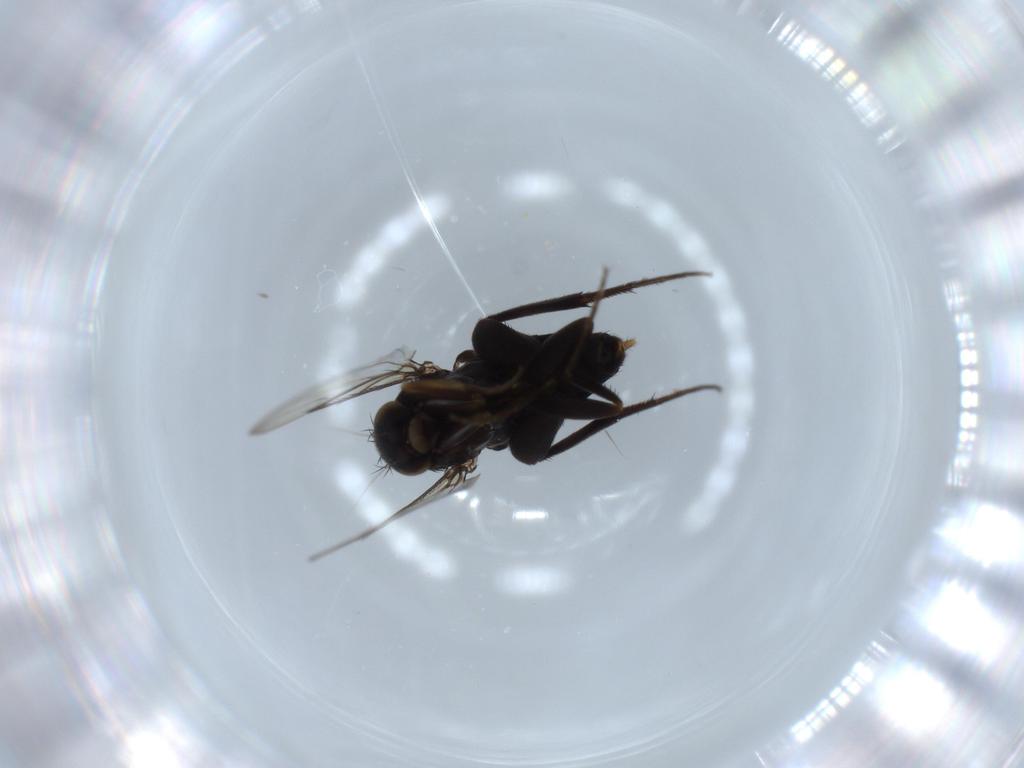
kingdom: Animalia
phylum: Arthropoda
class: Insecta
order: Diptera
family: Phoridae
